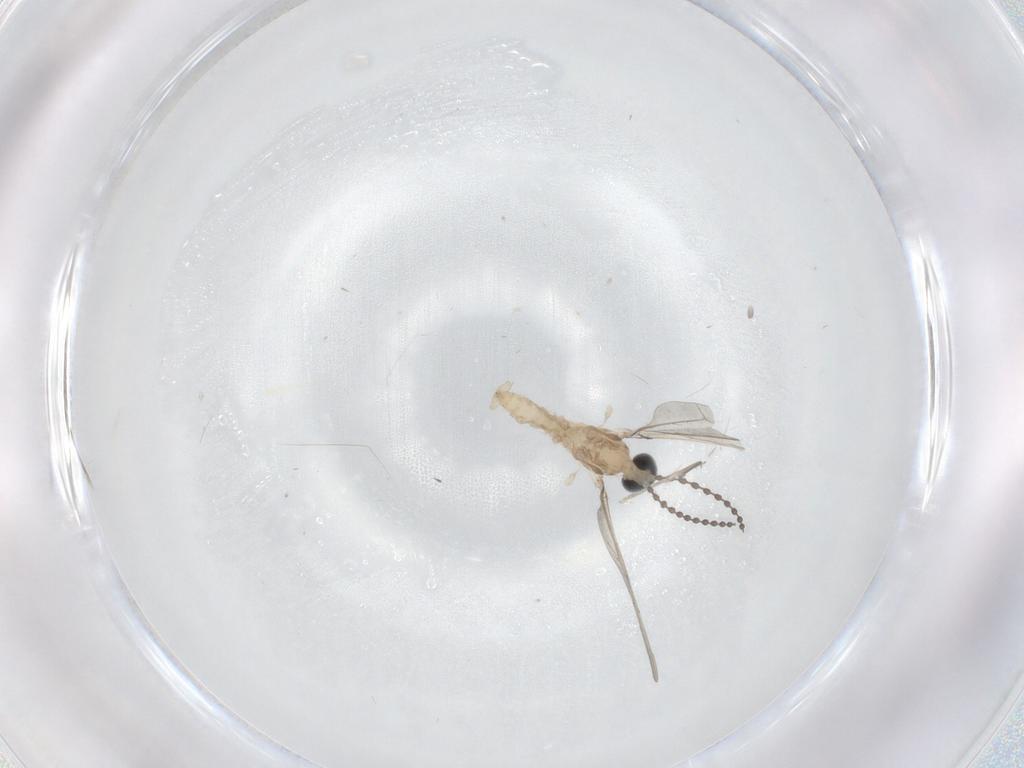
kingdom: Animalia
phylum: Arthropoda
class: Insecta
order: Diptera
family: Cecidomyiidae
